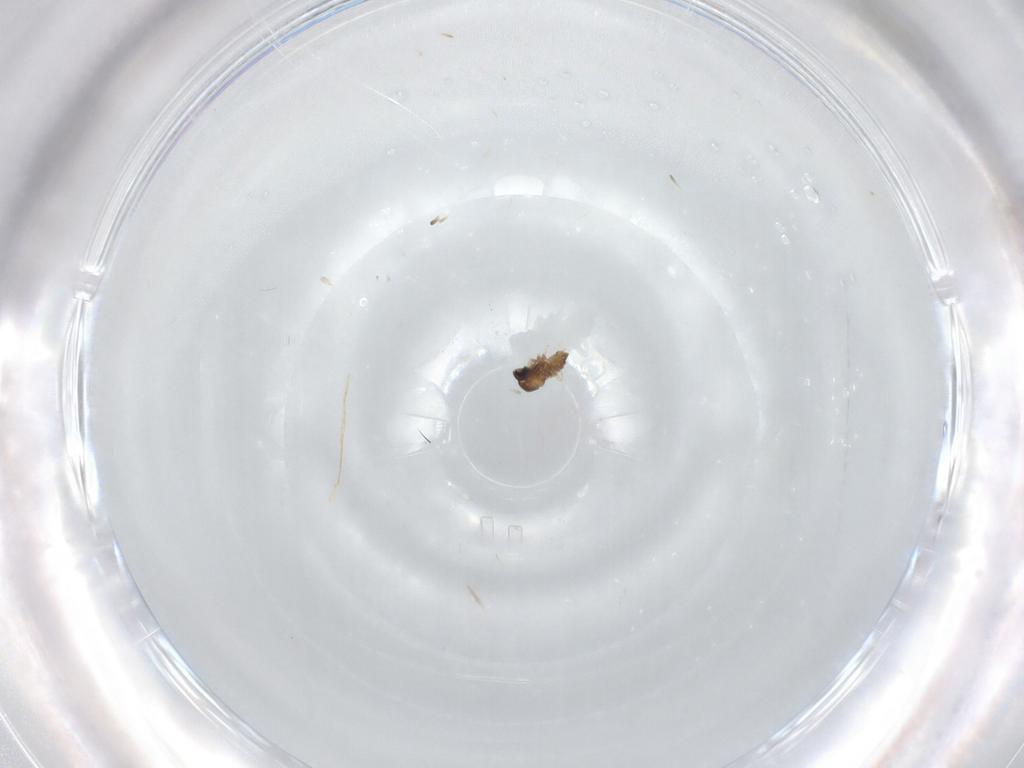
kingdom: Animalia
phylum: Arthropoda
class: Insecta
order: Diptera
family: Cecidomyiidae
